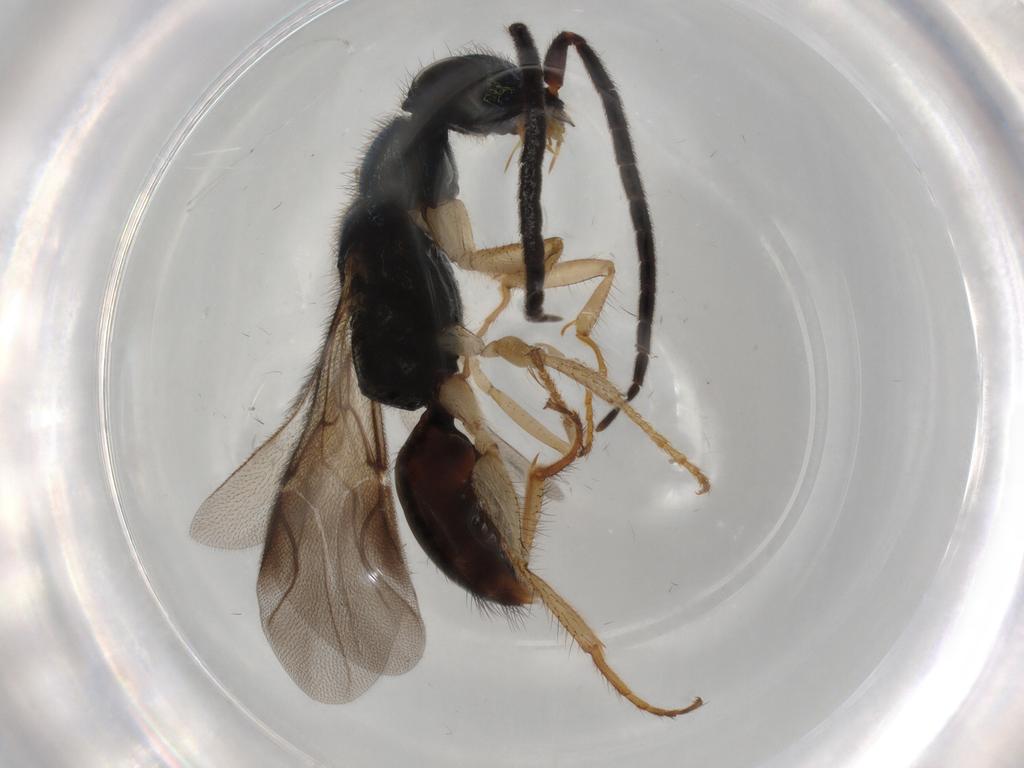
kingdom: Animalia
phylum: Arthropoda
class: Insecta
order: Hymenoptera
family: Chrysididae
